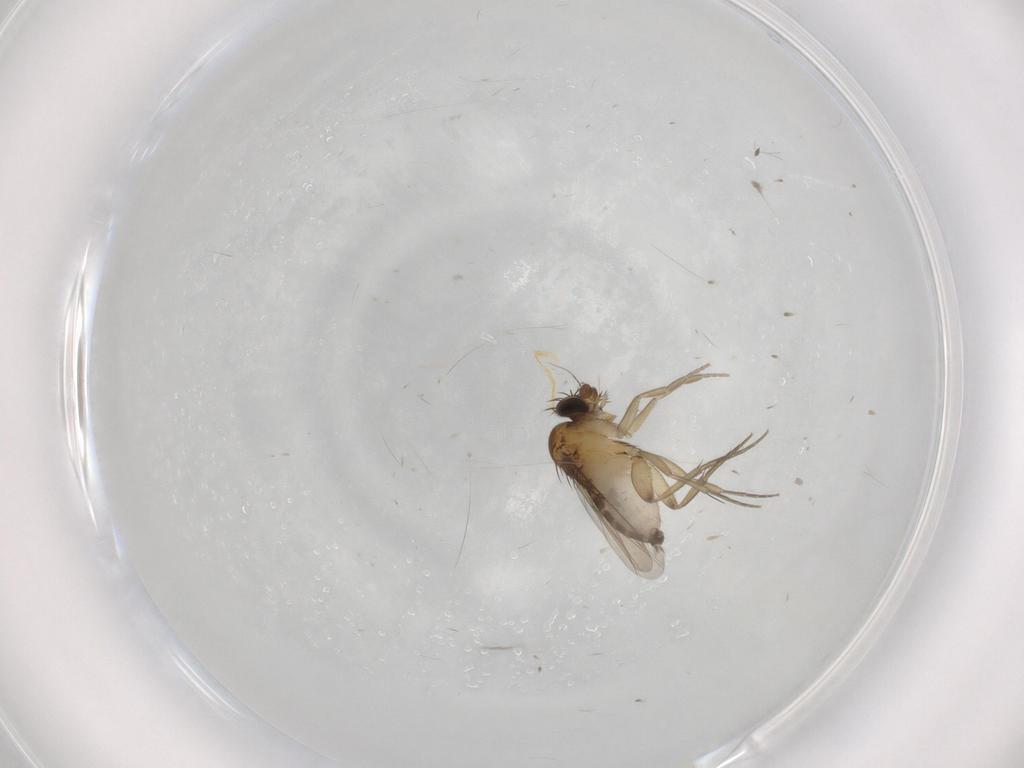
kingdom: Animalia
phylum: Arthropoda
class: Insecta
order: Diptera
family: Phoridae
